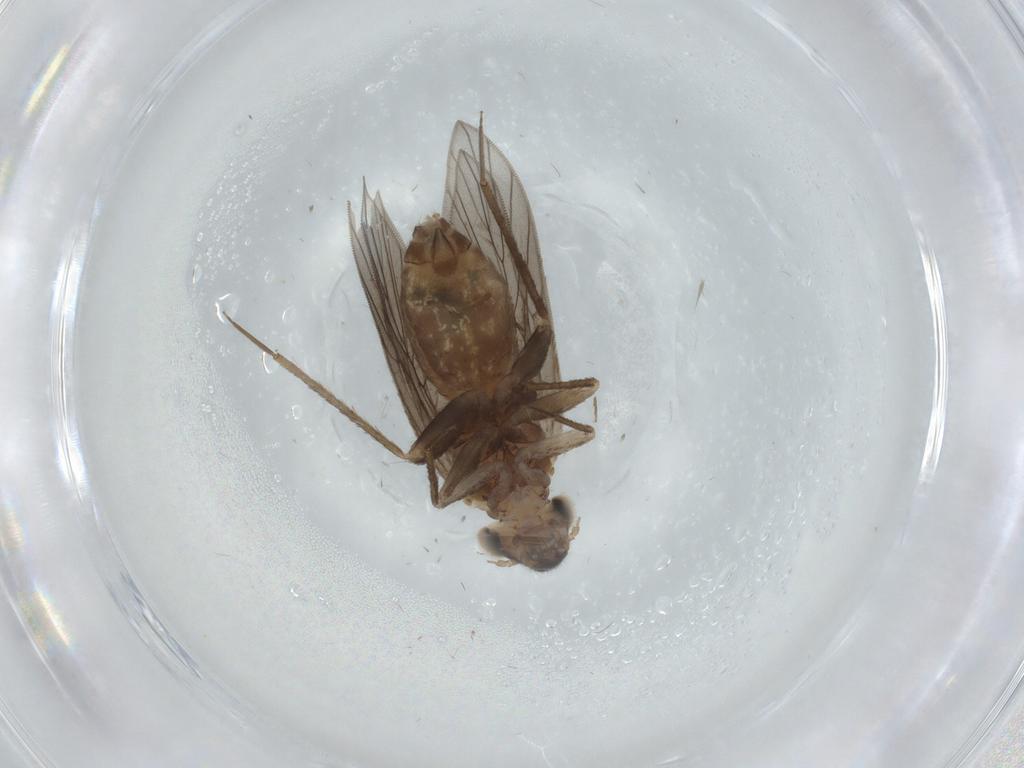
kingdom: Animalia
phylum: Arthropoda
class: Insecta
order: Psocodea
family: Lepidopsocidae
